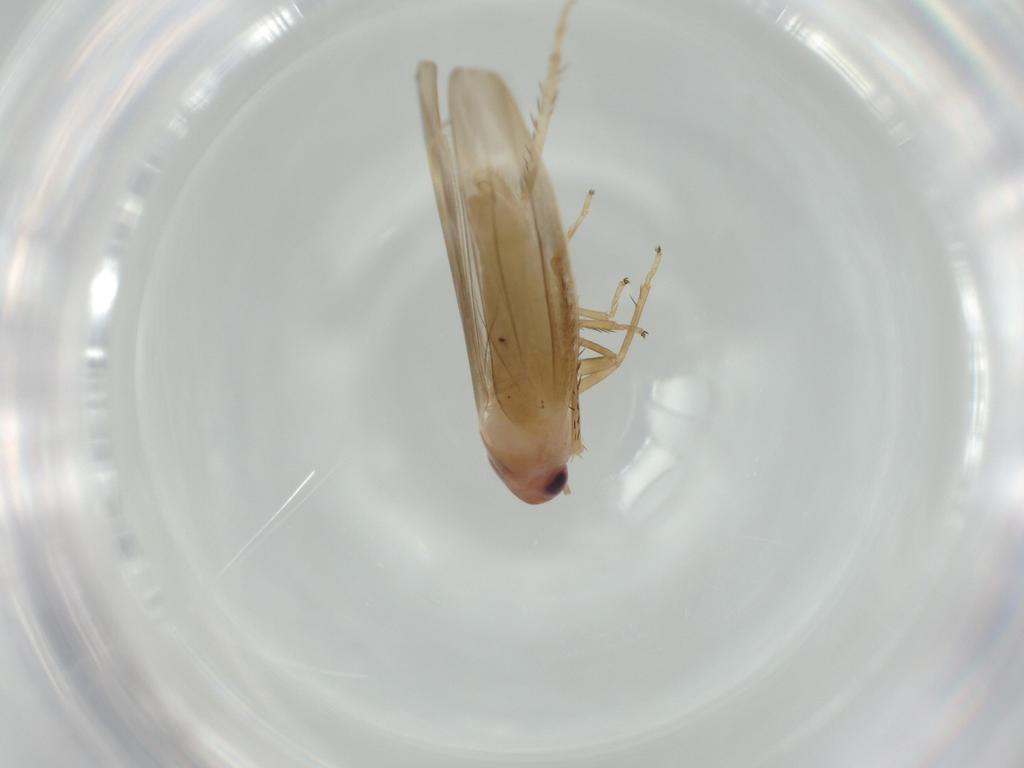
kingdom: Animalia
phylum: Arthropoda
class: Insecta
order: Hemiptera
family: Cicadellidae
